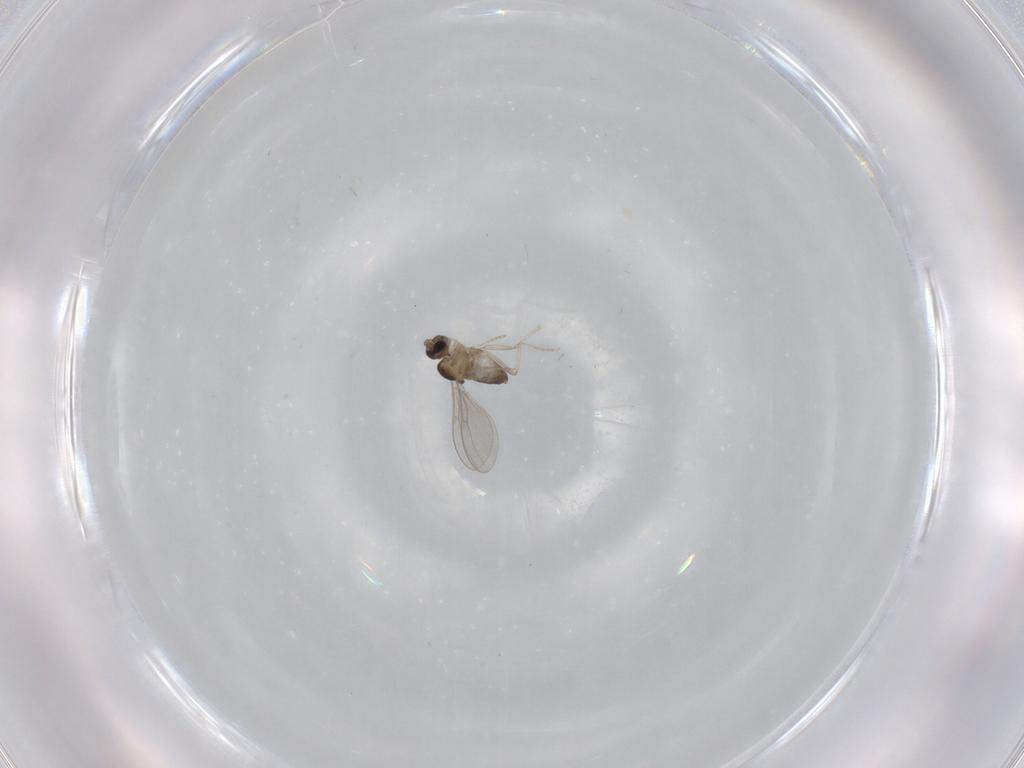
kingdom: Animalia
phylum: Arthropoda
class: Insecta
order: Diptera
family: Cecidomyiidae
